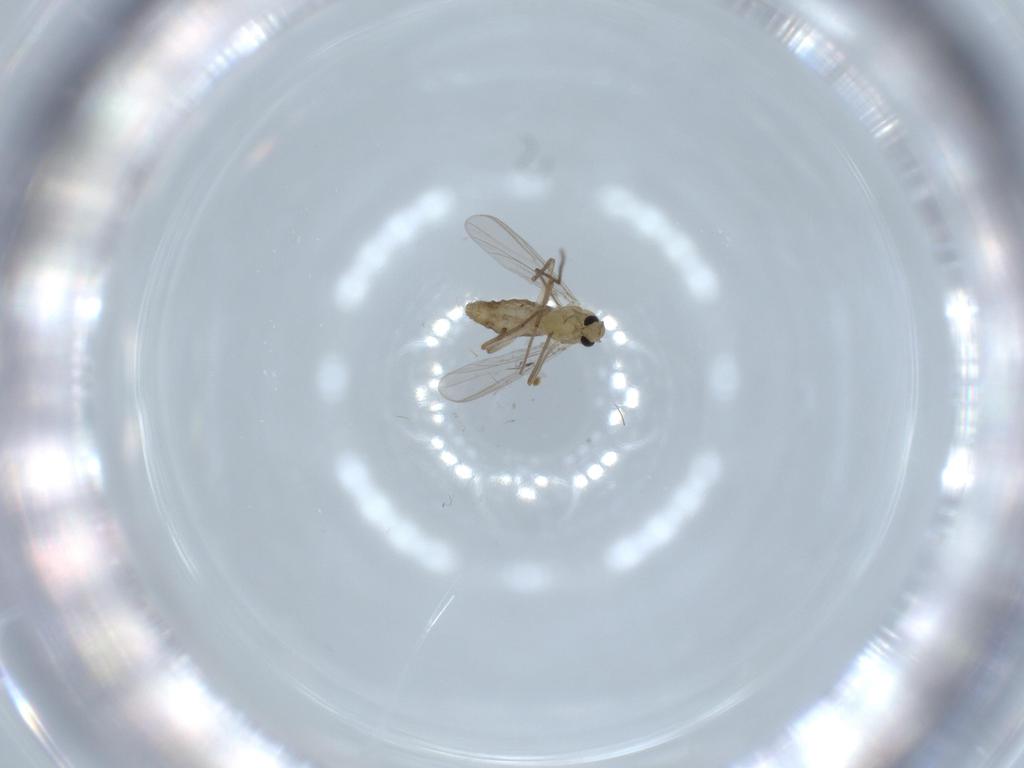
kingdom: Animalia
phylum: Arthropoda
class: Insecta
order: Diptera
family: Chironomidae
